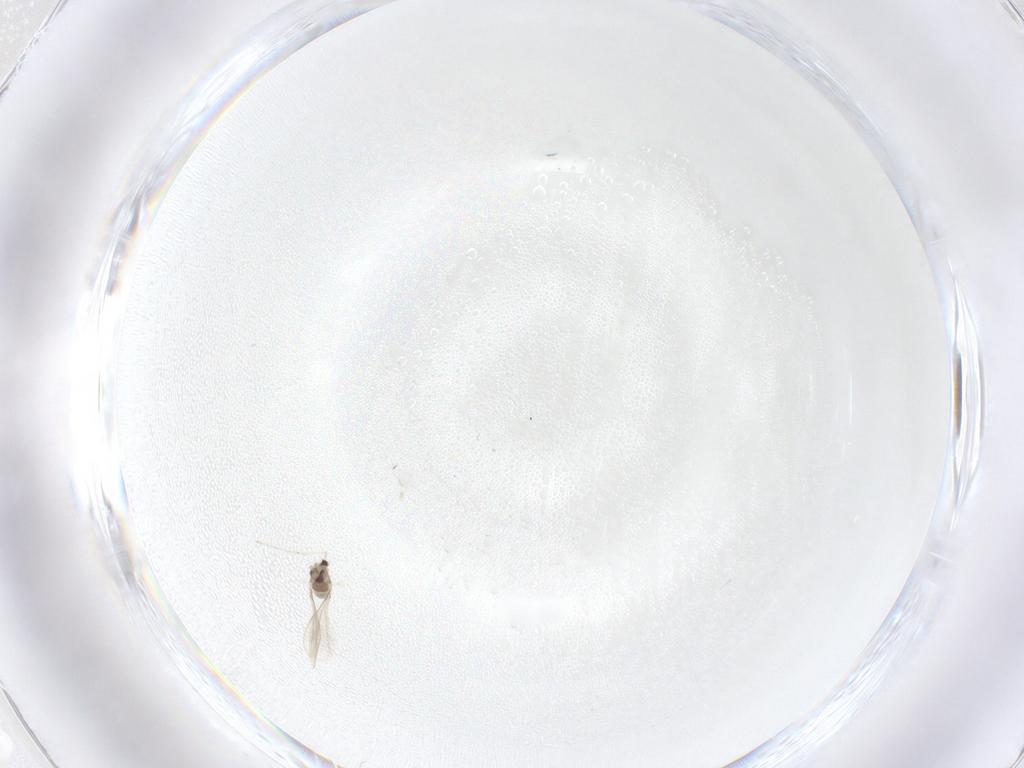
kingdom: Animalia
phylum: Arthropoda
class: Insecta
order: Diptera
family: Cecidomyiidae
